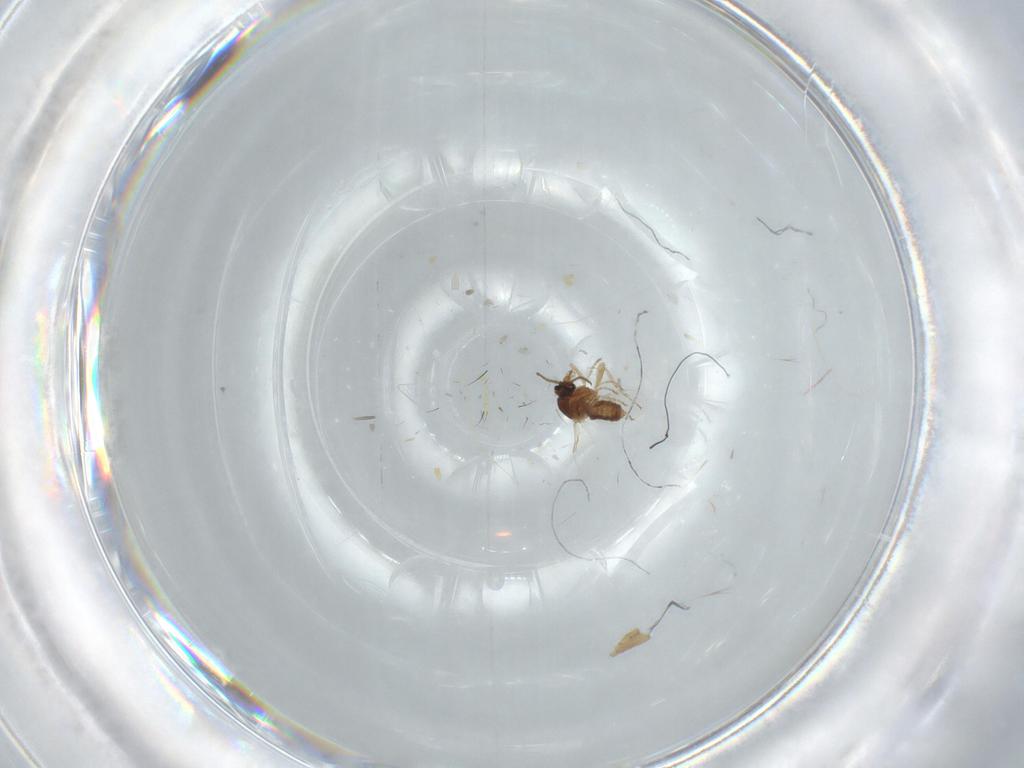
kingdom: Animalia
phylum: Arthropoda
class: Insecta
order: Diptera
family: Ceratopogonidae
